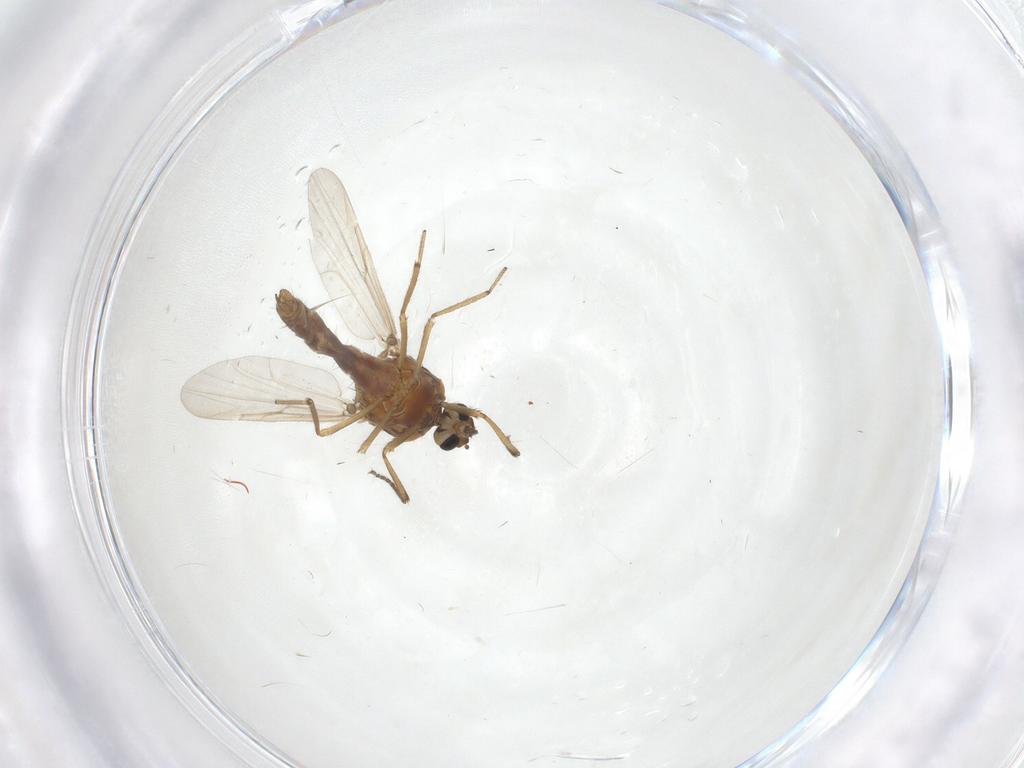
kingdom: Animalia
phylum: Arthropoda
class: Insecta
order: Diptera
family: Ceratopogonidae
